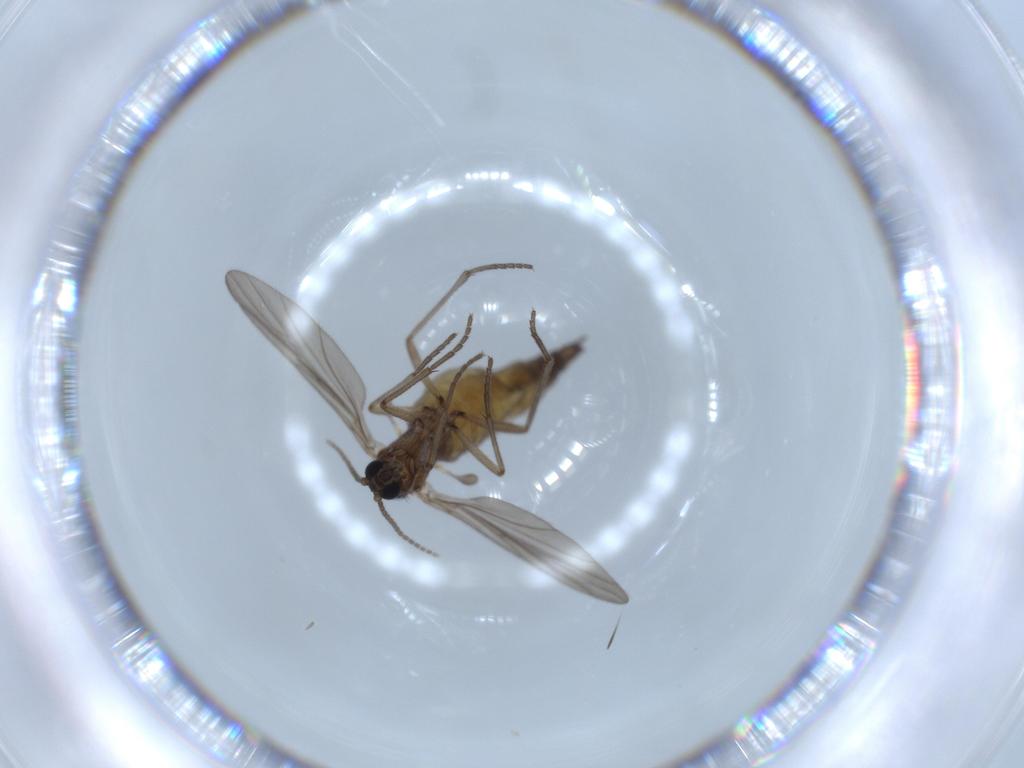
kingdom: Animalia
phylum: Arthropoda
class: Insecta
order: Diptera
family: Sciaridae
